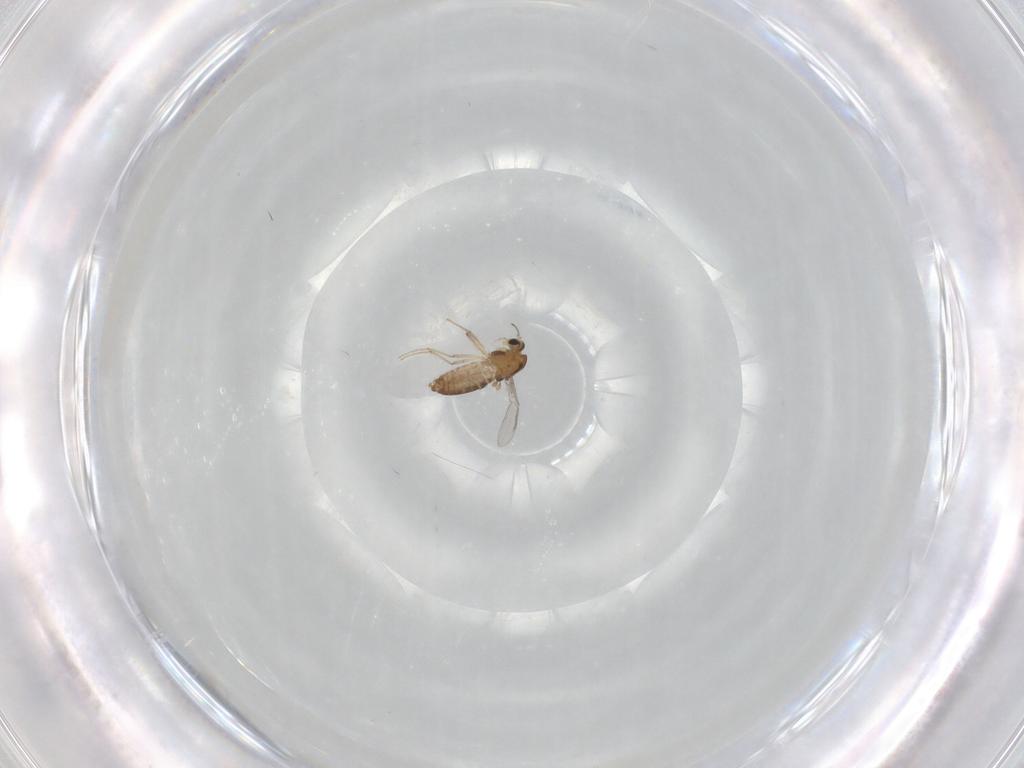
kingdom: Animalia
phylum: Arthropoda
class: Insecta
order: Diptera
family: Chironomidae
